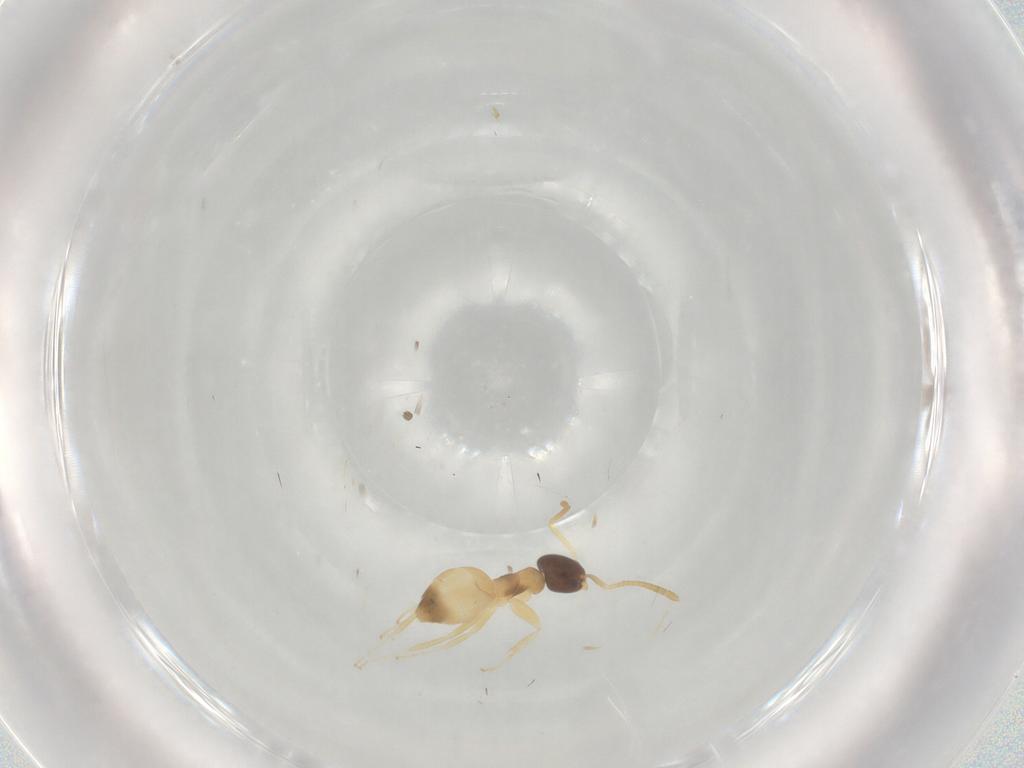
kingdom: Animalia
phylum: Arthropoda
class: Insecta
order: Hymenoptera
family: Formicidae
